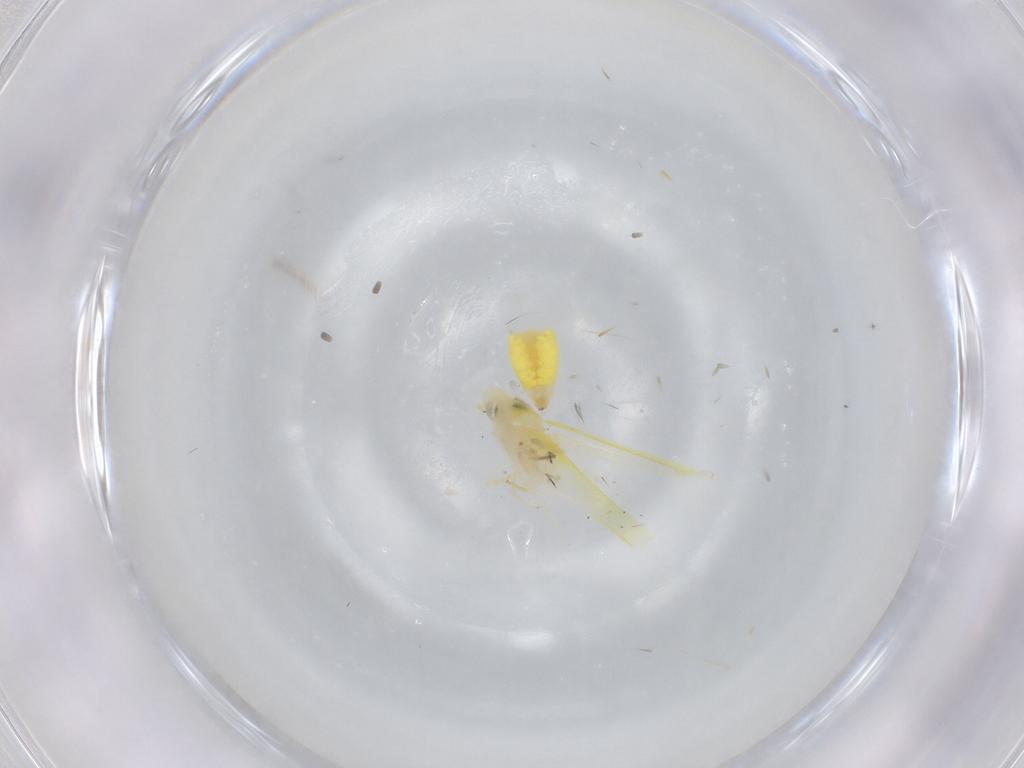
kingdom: Animalia
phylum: Arthropoda
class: Insecta
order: Hemiptera
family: Cicadellidae
